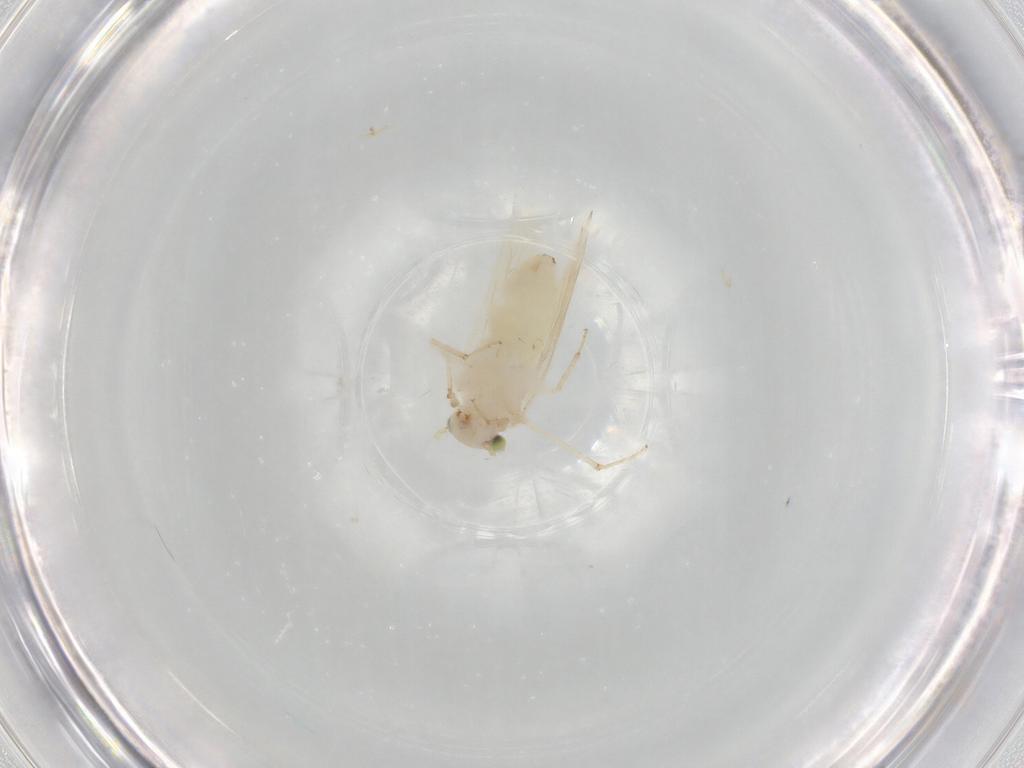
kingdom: Animalia
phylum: Arthropoda
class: Insecta
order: Psocodea
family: Lepidopsocidae
